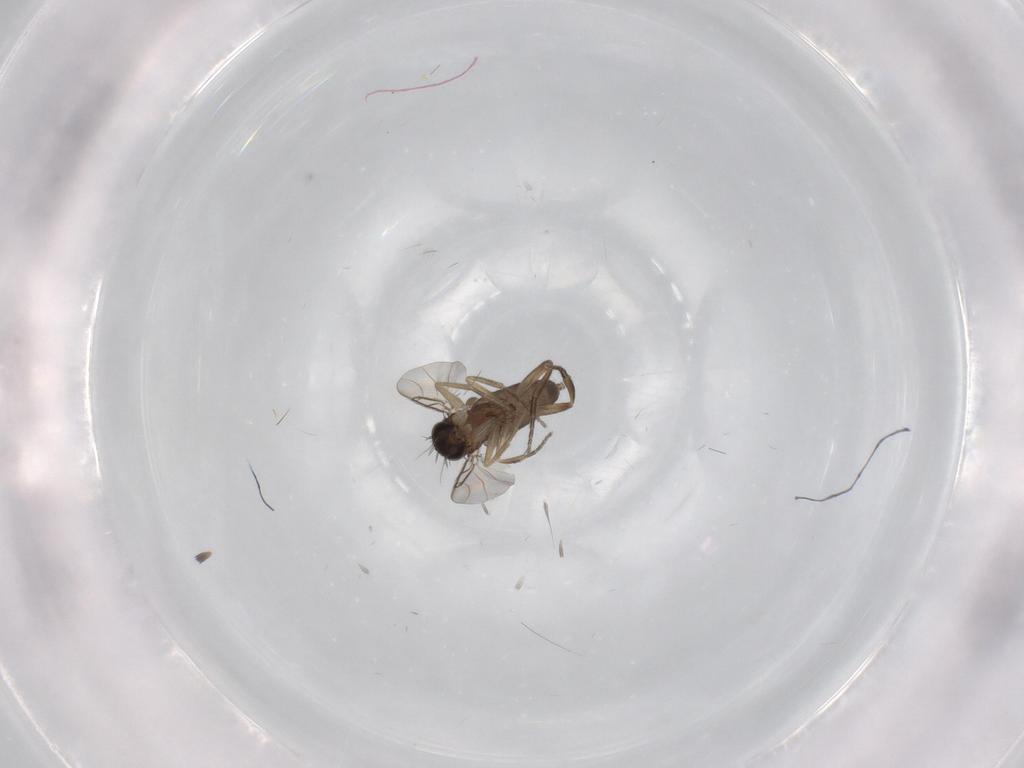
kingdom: Animalia
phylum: Arthropoda
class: Insecta
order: Diptera
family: Phoridae
